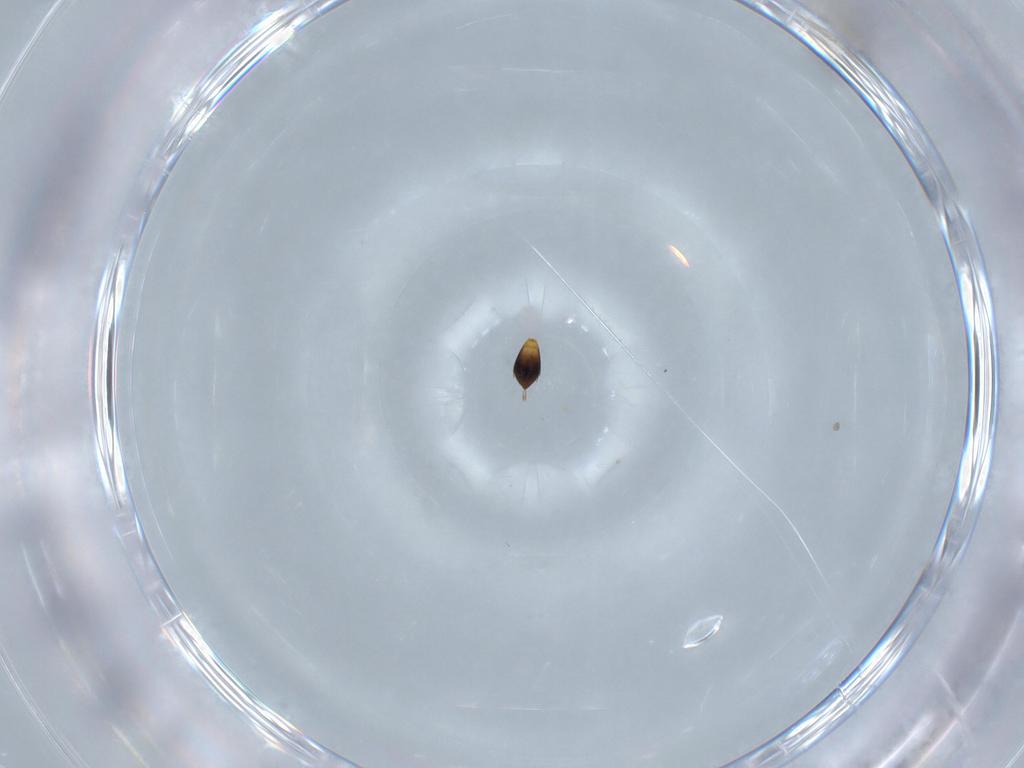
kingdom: Animalia
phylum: Arthropoda
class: Insecta
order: Hymenoptera
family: Scelionidae
